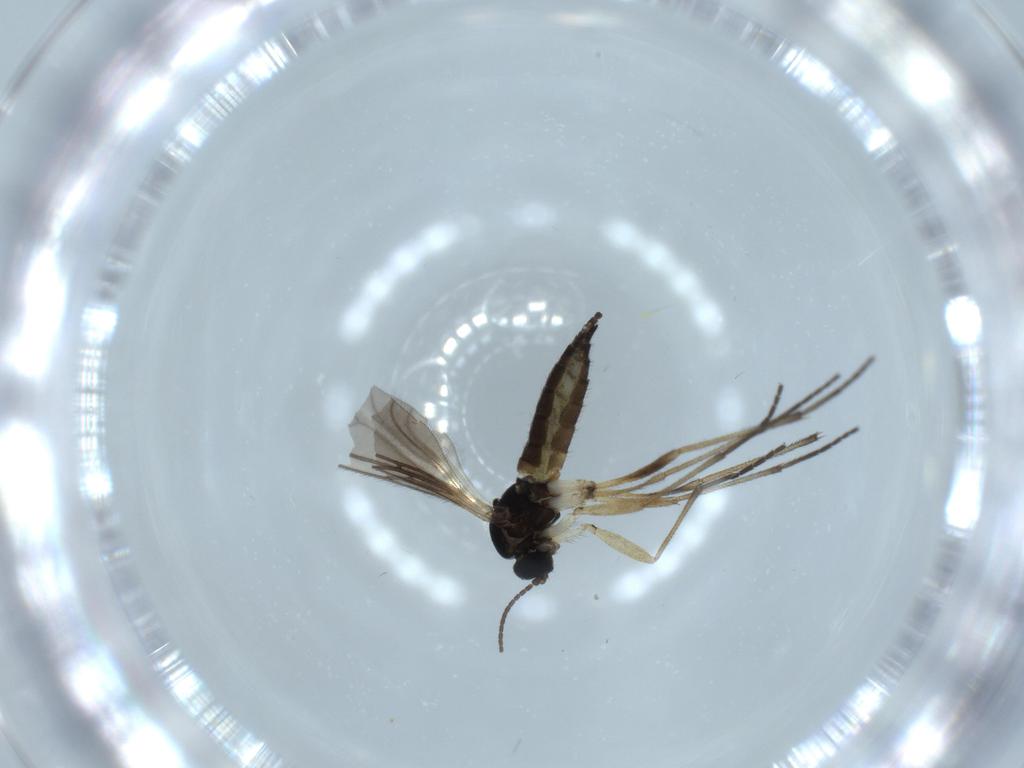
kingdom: Animalia
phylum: Arthropoda
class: Insecta
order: Diptera
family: Sciaridae
